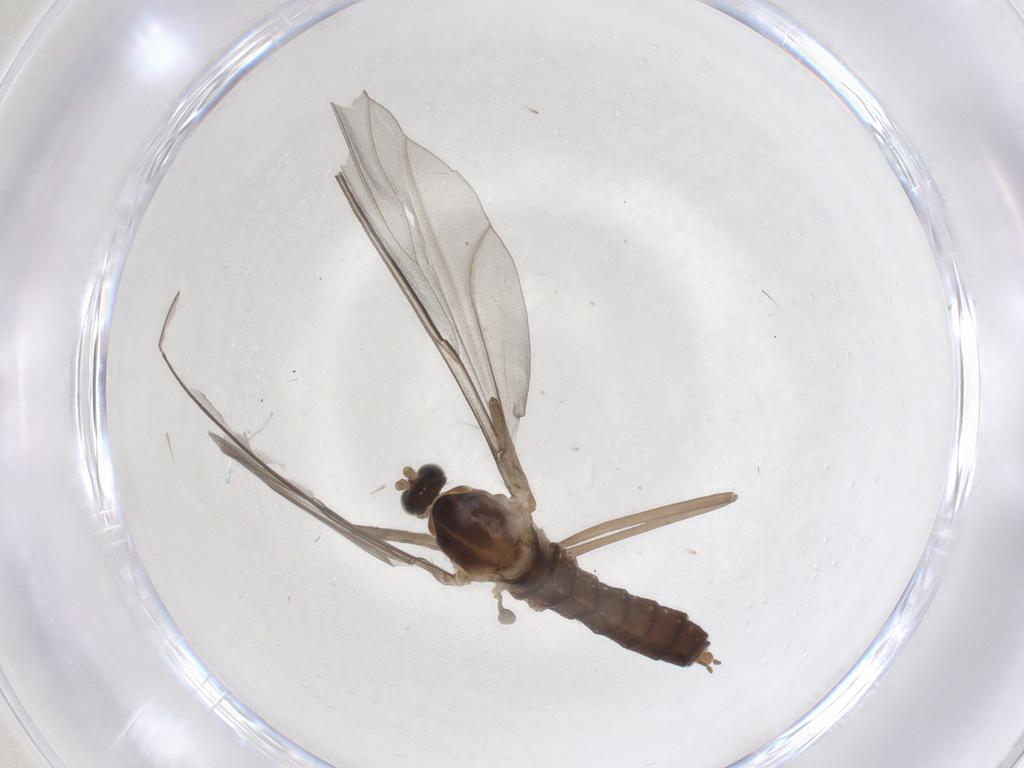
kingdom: Animalia
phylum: Arthropoda
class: Insecta
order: Diptera
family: Cecidomyiidae
